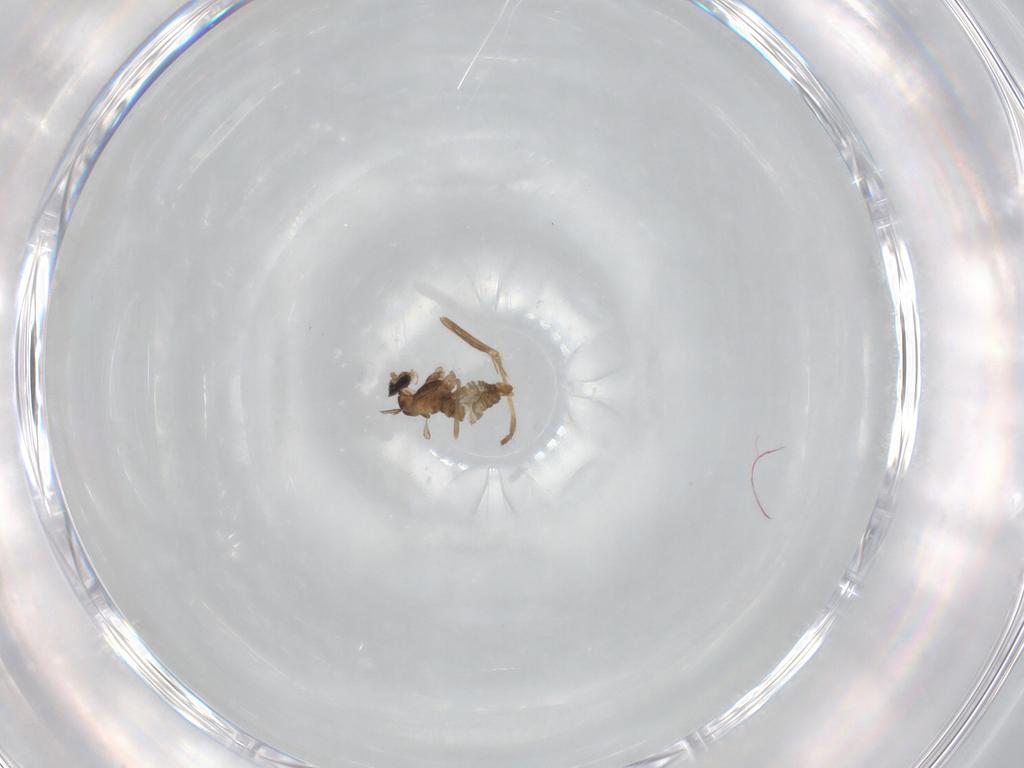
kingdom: Animalia
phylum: Arthropoda
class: Insecta
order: Diptera
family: Cecidomyiidae
